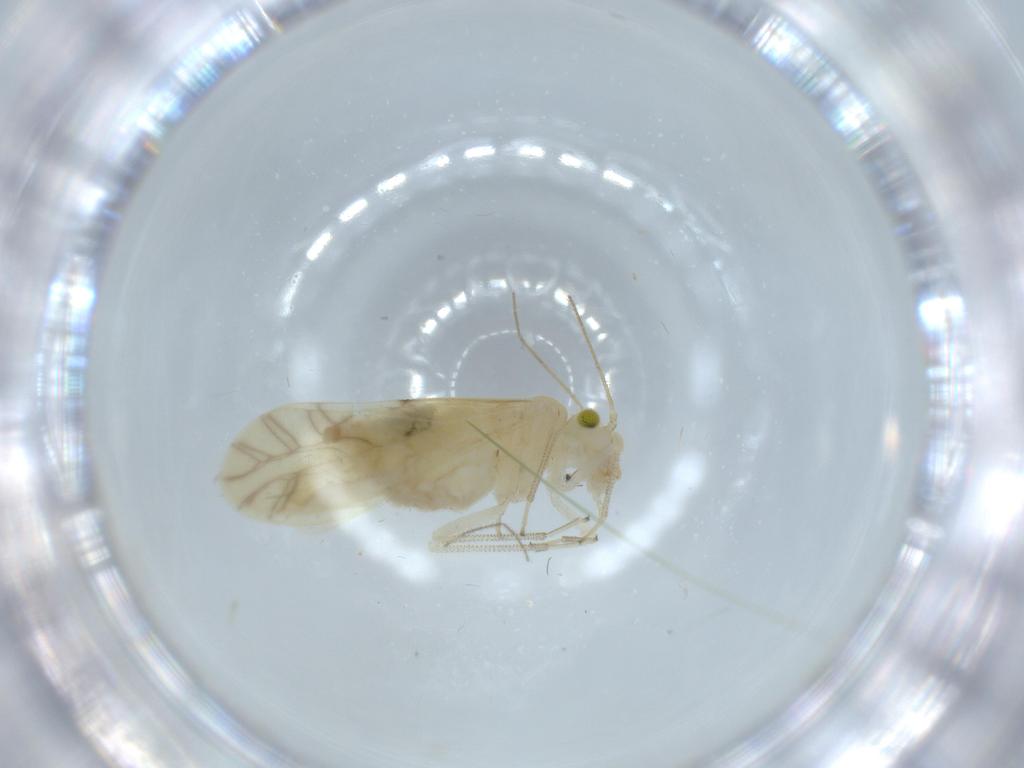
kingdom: Animalia
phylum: Arthropoda
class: Insecta
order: Psocodea
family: Caeciliusidae
